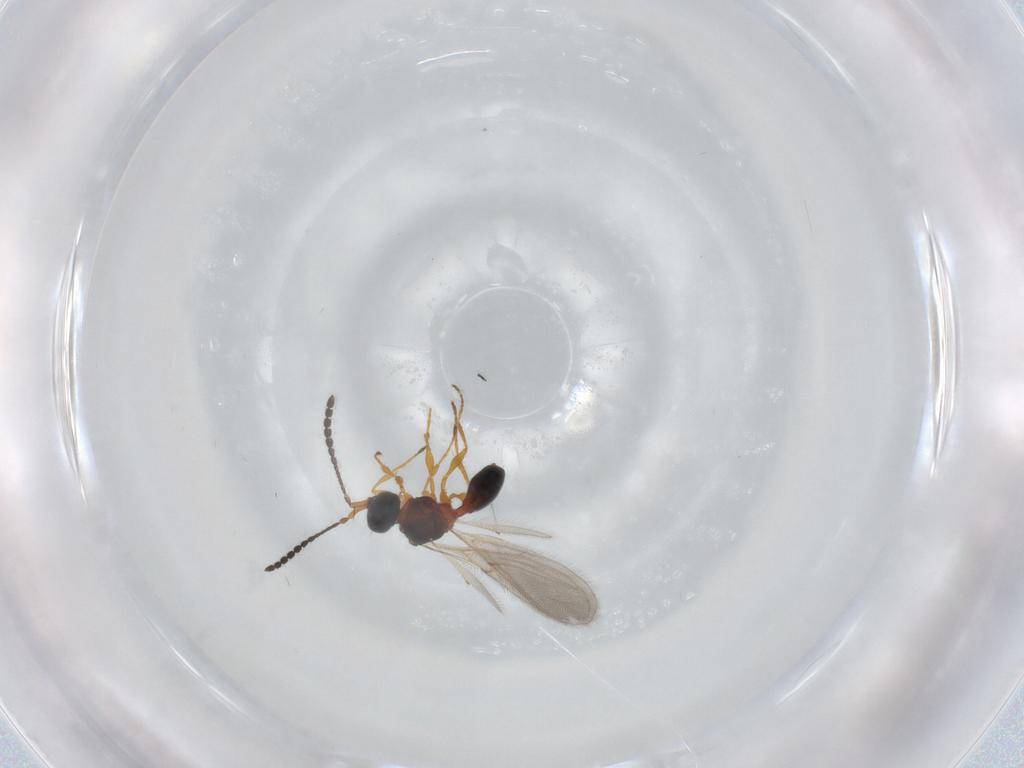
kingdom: Animalia
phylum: Arthropoda
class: Insecta
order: Hymenoptera
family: Diapriidae
